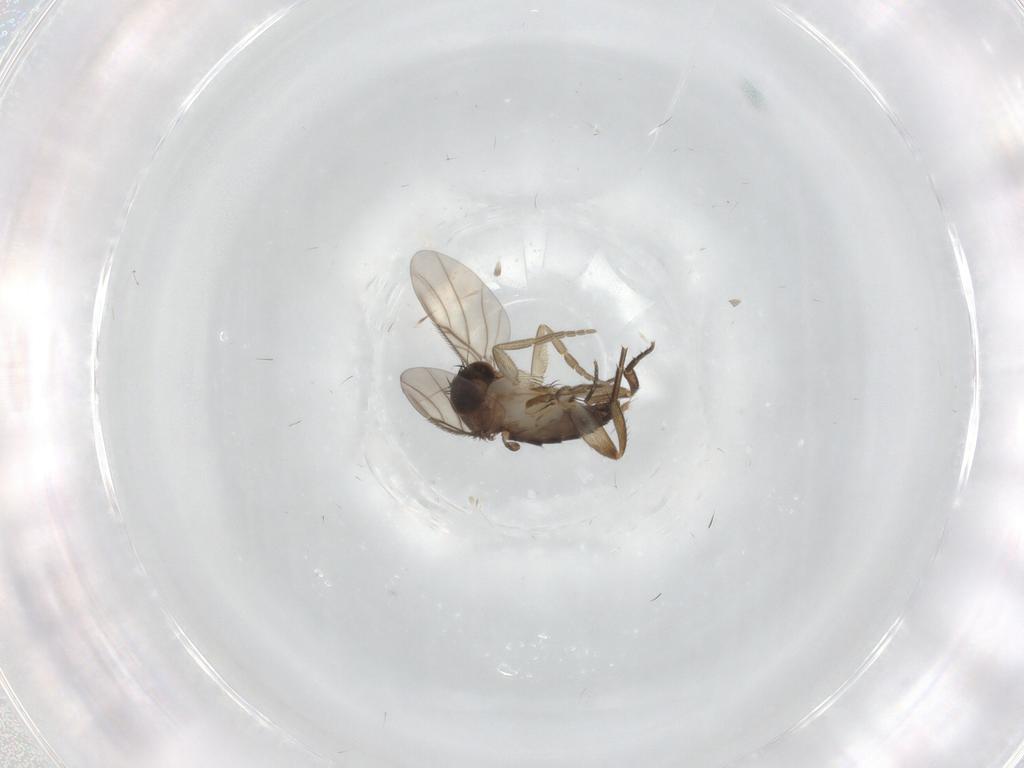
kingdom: Animalia
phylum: Arthropoda
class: Insecta
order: Diptera
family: Phoridae
